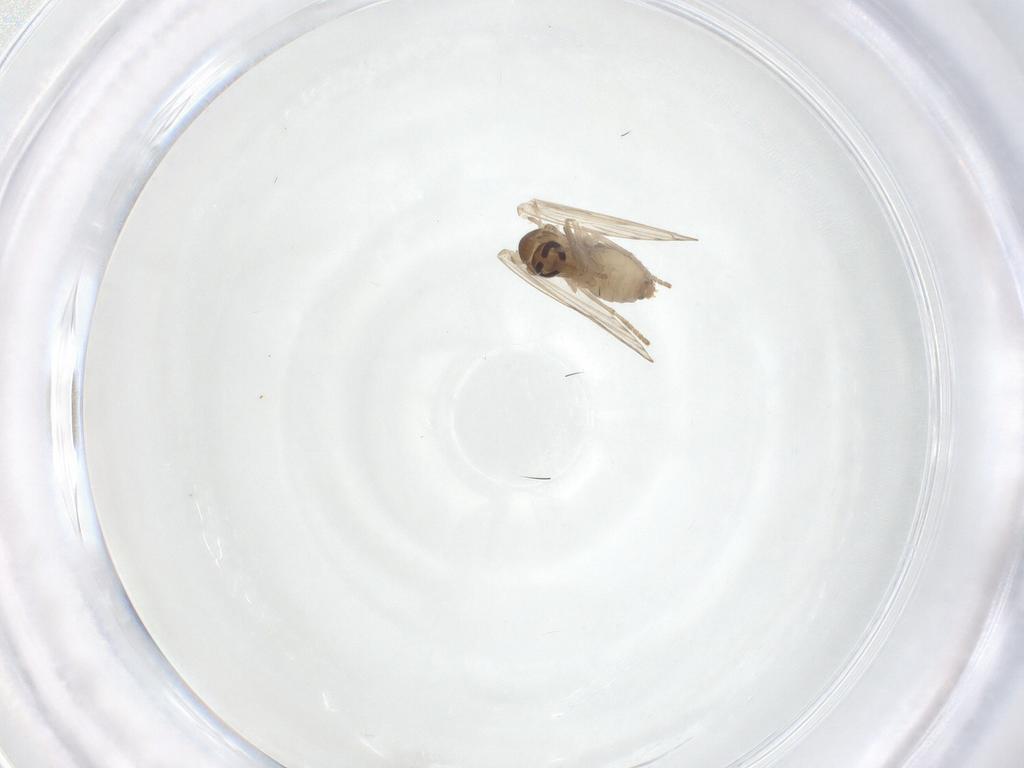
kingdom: Animalia
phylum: Arthropoda
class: Insecta
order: Diptera
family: Psychodidae
